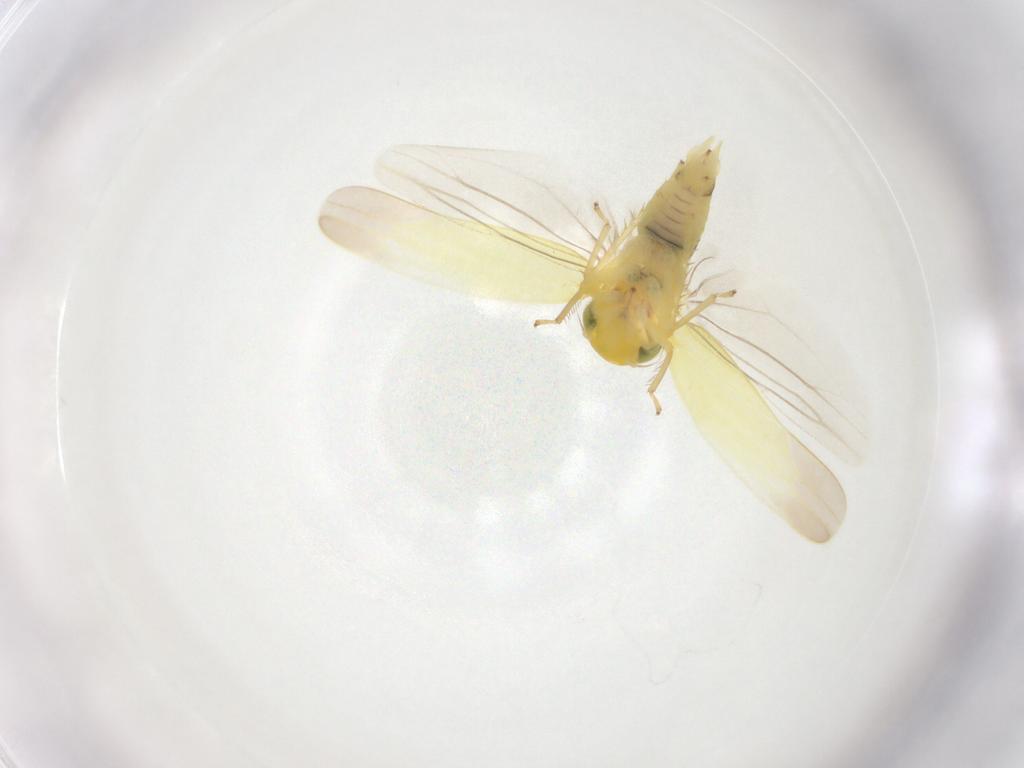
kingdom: Animalia
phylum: Arthropoda
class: Insecta
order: Hemiptera
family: Cicadellidae
